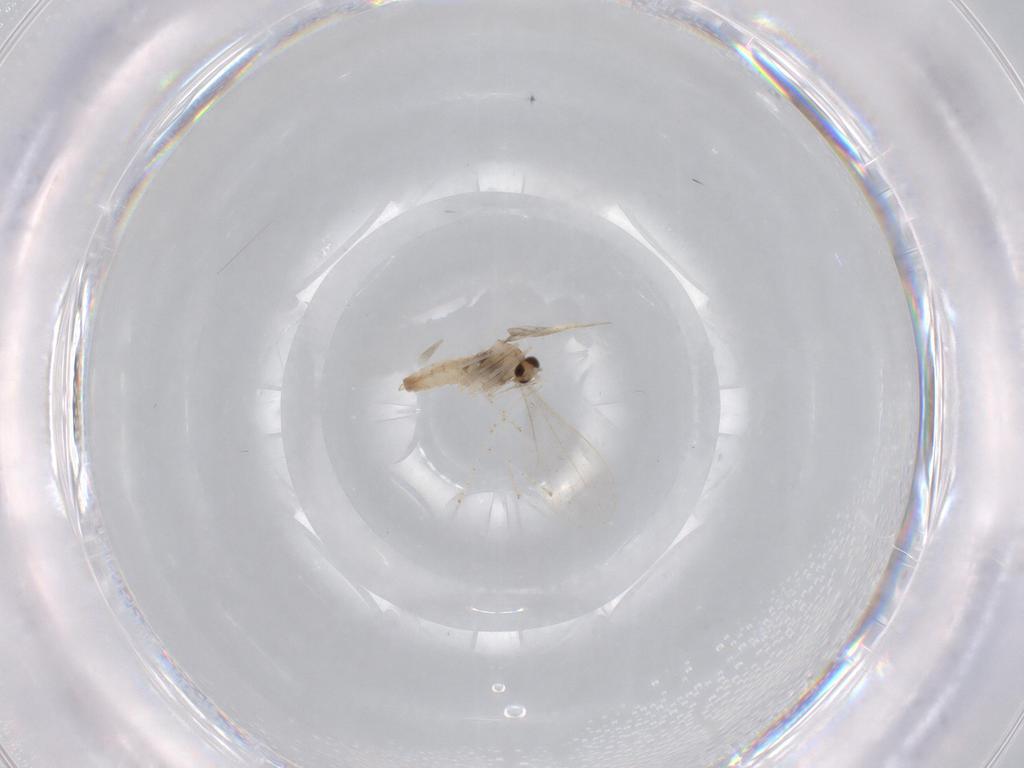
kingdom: Animalia
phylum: Arthropoda
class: Insecta
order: Diptera
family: Cecidomyiidae
